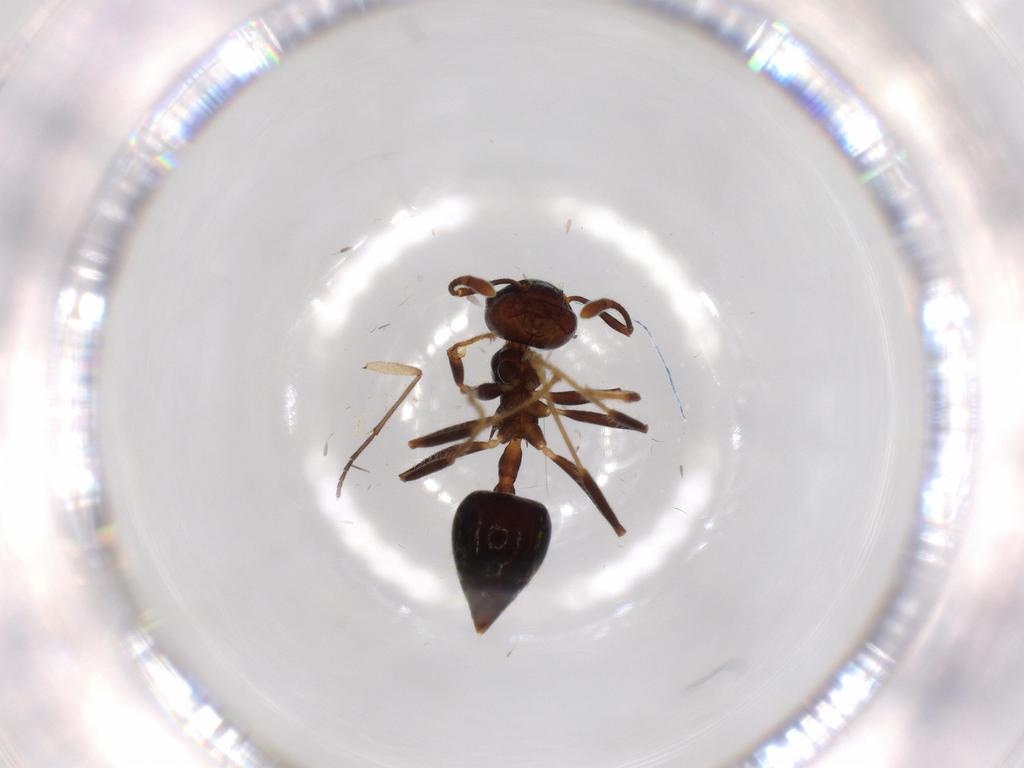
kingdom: Animalia
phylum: Arthropoda
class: Insecta
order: Hymenoptera
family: Formicidae
